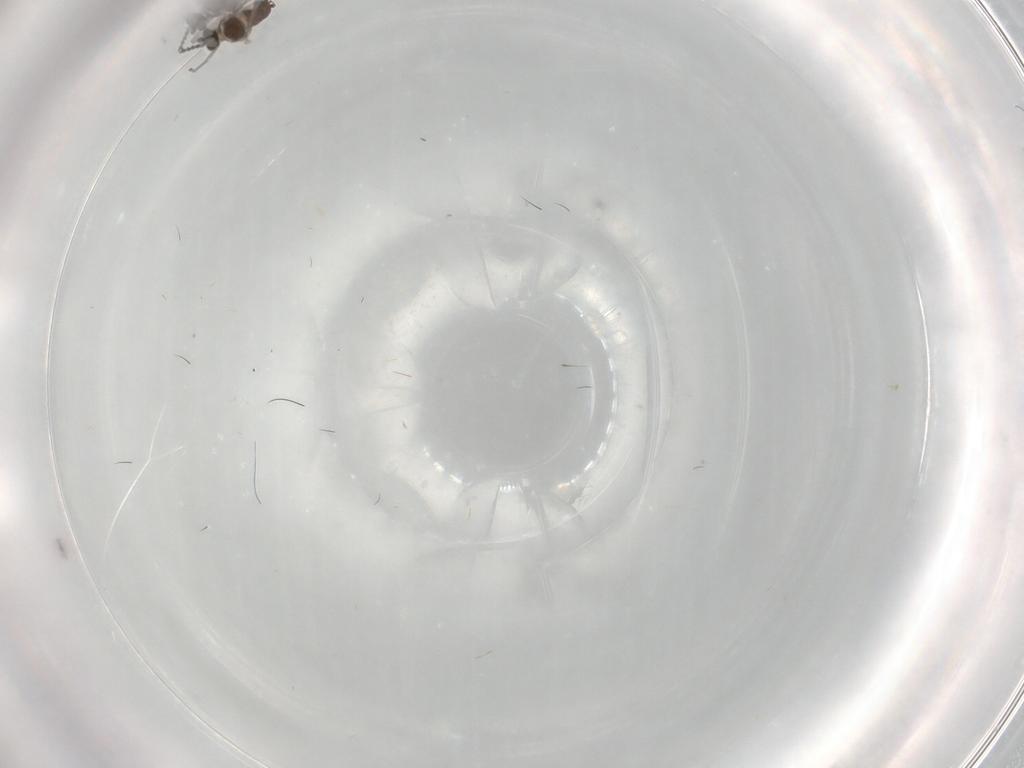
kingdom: Animalia
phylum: Arthropoda
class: Insecta
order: Diptera
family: Sciaridae
